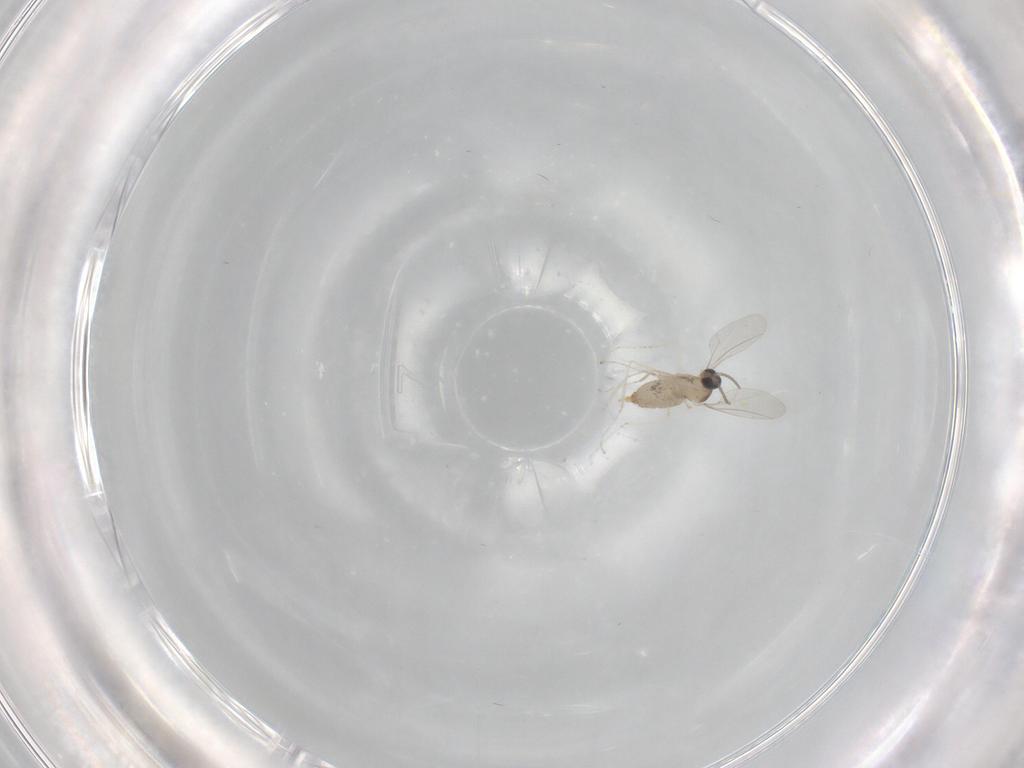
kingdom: Animalia
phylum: Arthropoda
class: Insecta
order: Diptera
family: Cecidomyiidae
